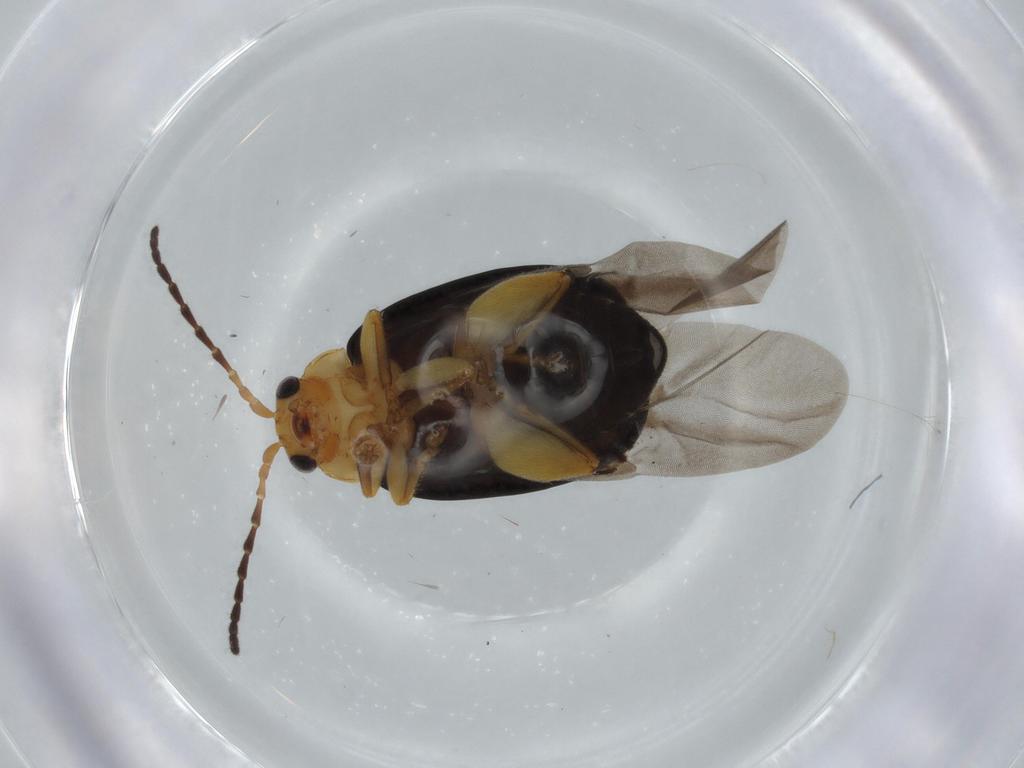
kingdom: Animalia
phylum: Arthropoda
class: Insecta
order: Coleoptera
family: Chrysomelidae
